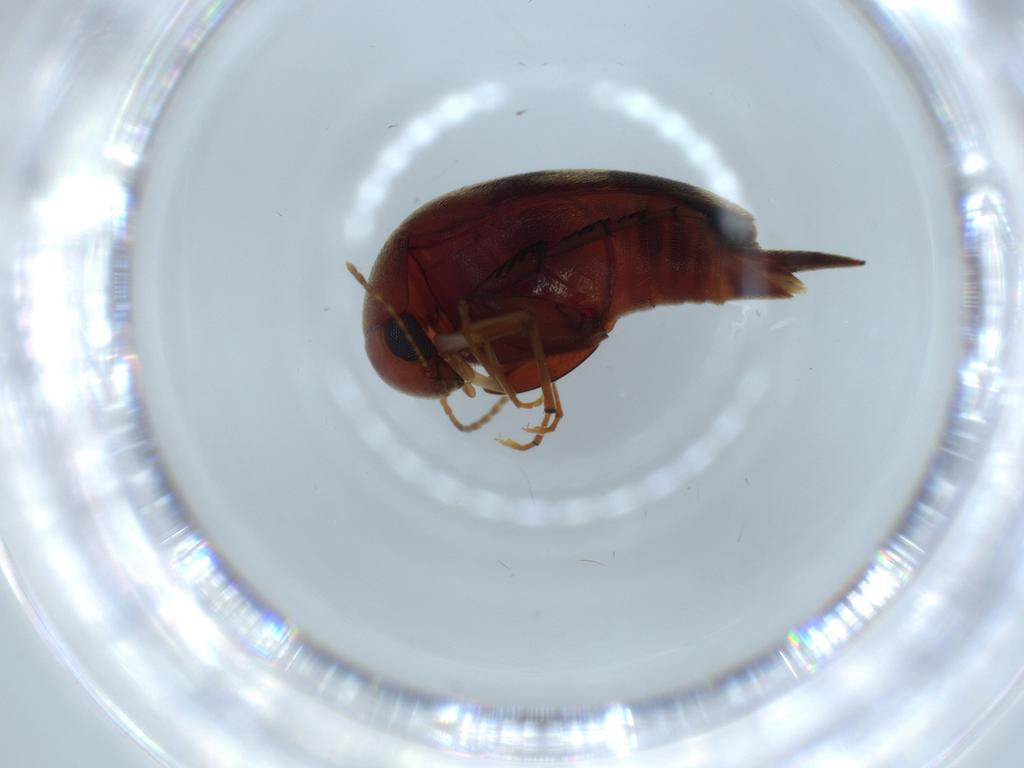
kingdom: Animalia
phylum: Arthropoda
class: Insecta
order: Coleoptera
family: Chrysomelidae
